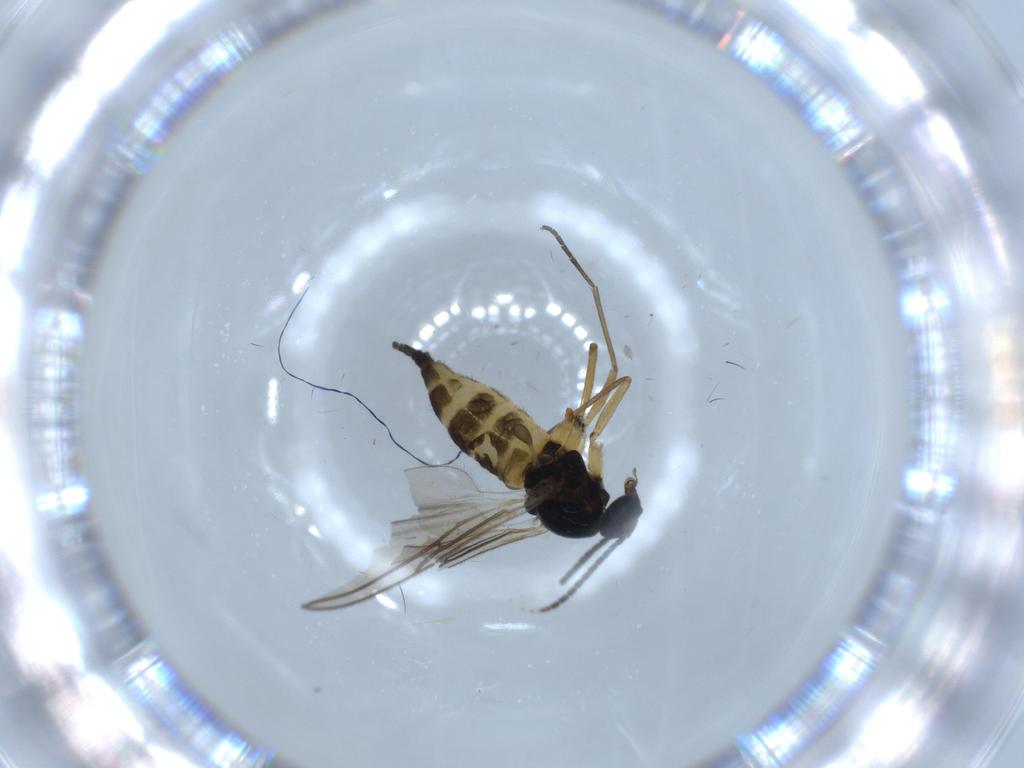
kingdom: Animalia
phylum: Arthropoda
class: Insecta
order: Diptera
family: Sciaridae
